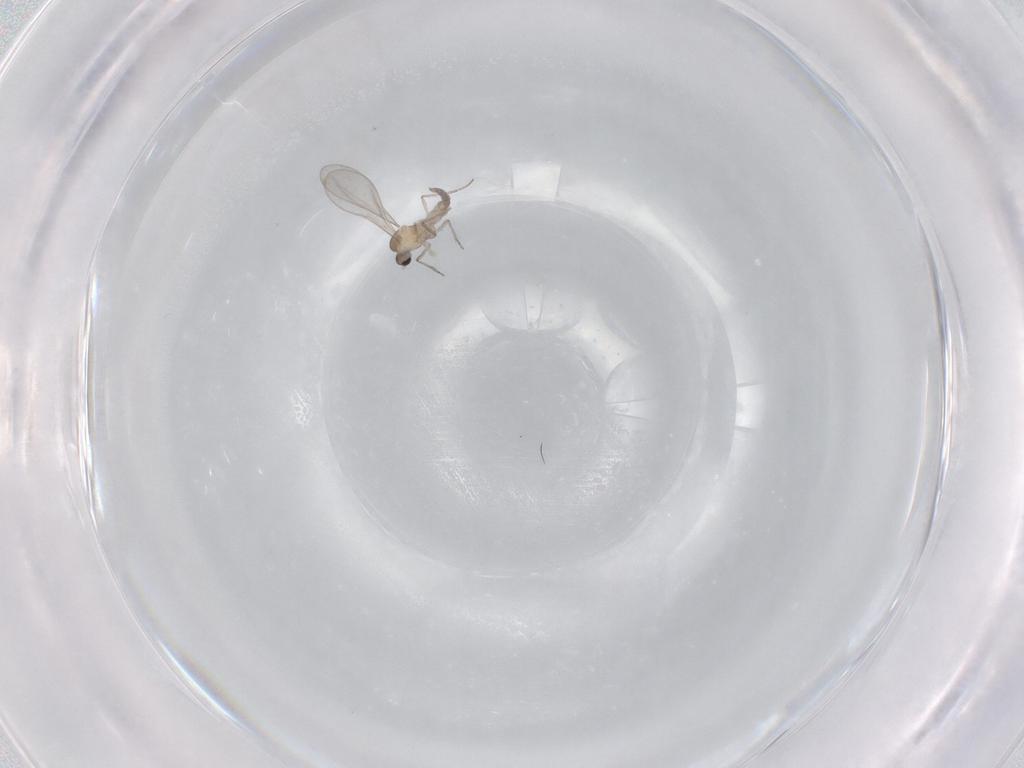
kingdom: Animalia
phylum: Arthropoda
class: Insecta
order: Diptera
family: Cecidomyiidae
